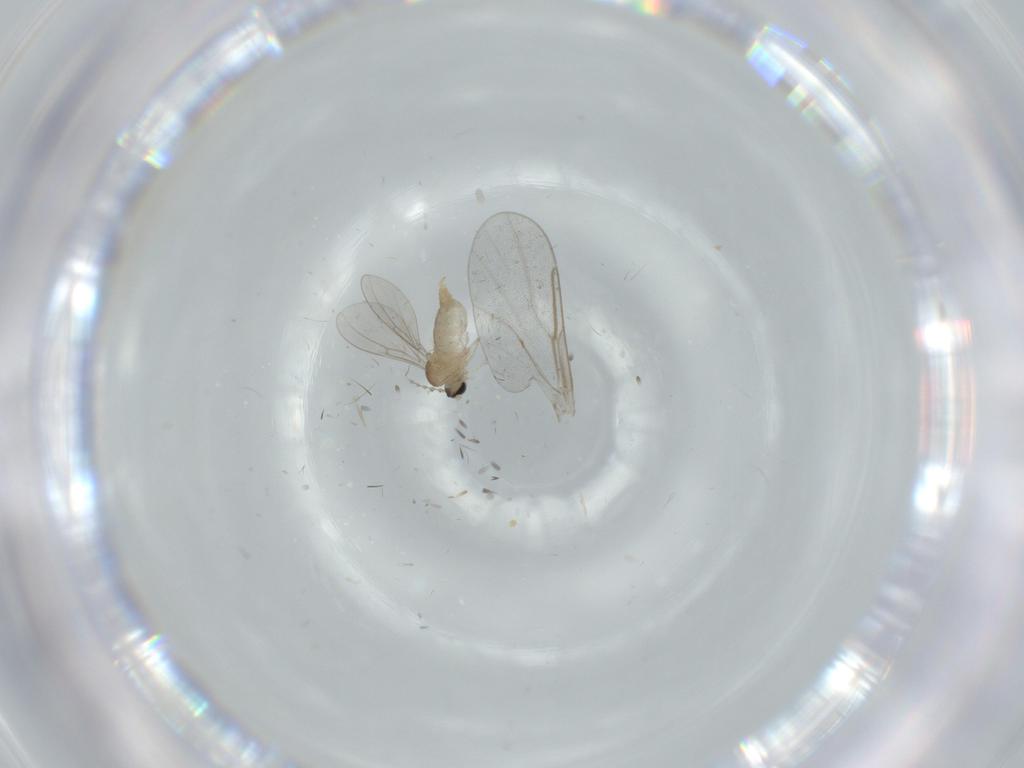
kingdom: Animalia
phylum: Arthropoda
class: Insecta
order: Diptera
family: Cecidomyiidae
